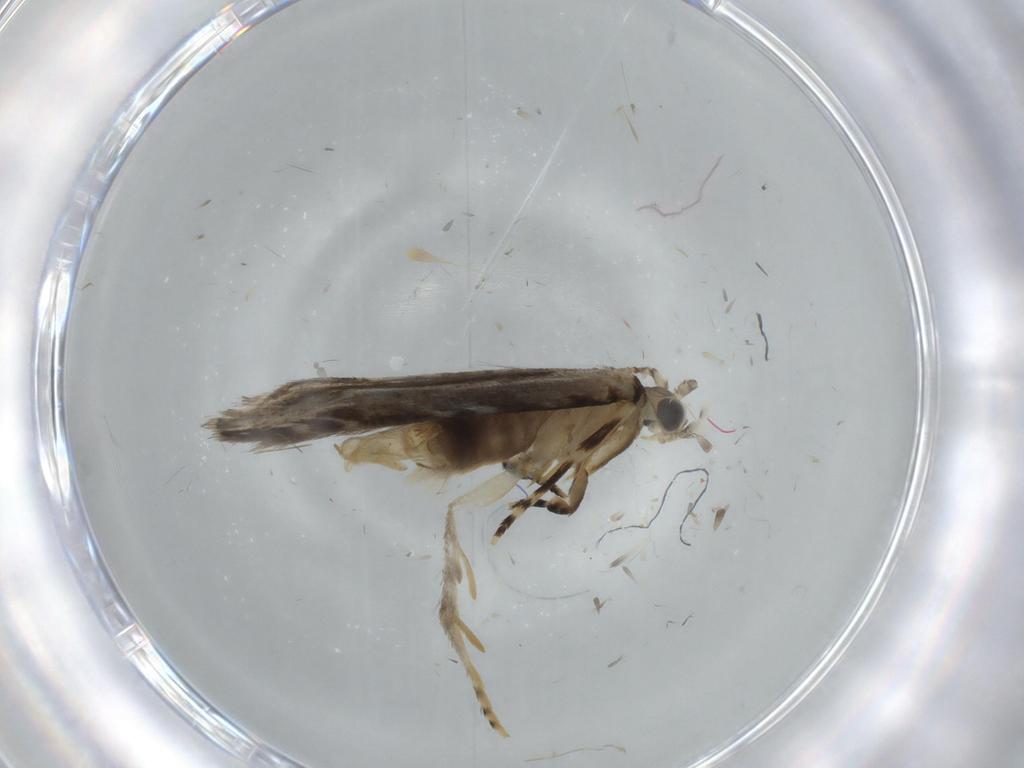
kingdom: Animalia
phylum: Arthropoda
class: Insecta
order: Lepidoptera
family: Tineidae
